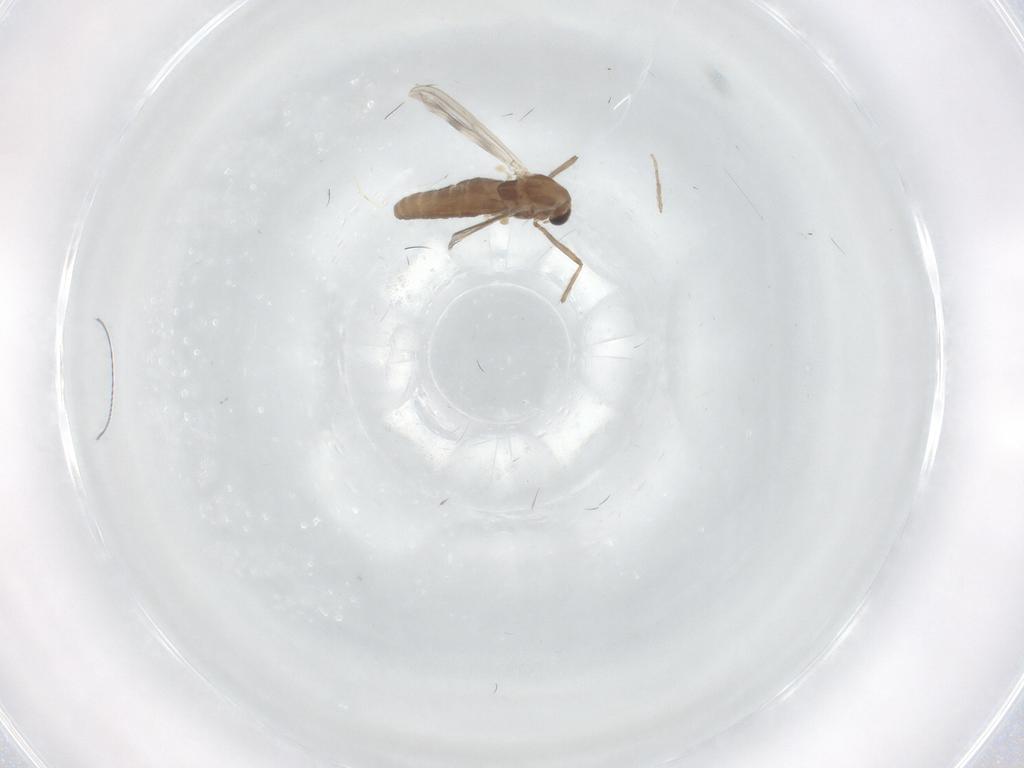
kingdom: Animalia
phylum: Arthropoda
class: Insecta
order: Diptera
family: Chironomidae
